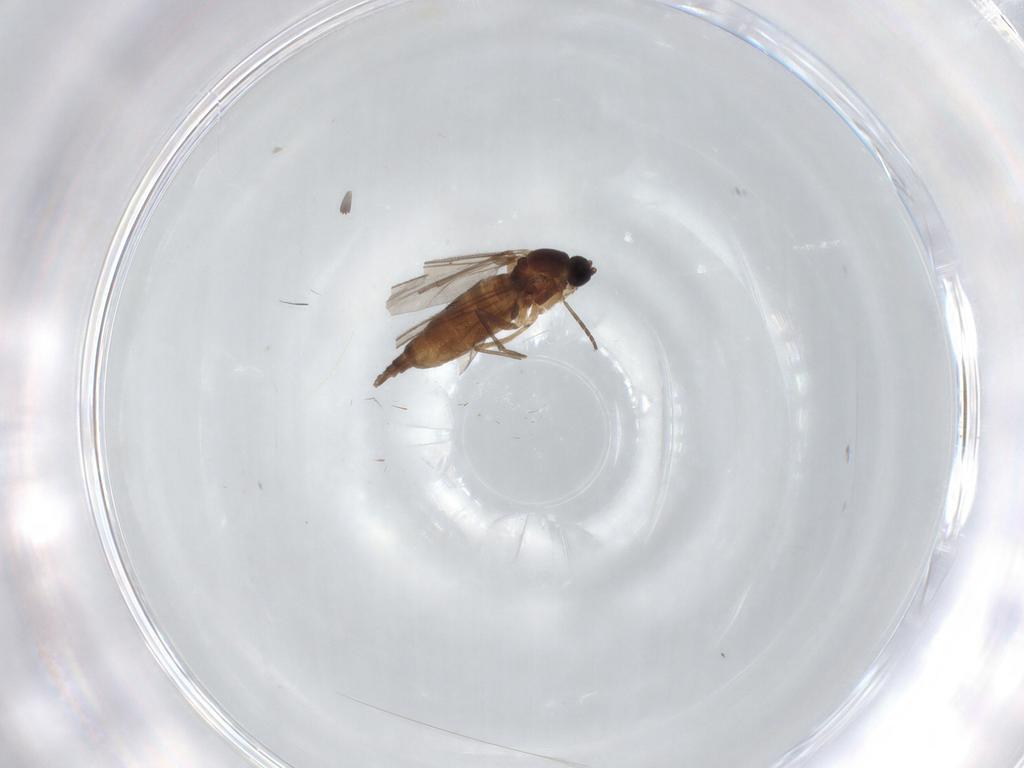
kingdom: Animalia
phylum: Arthropoda
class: Insecta
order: Diptera
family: Sciaridae
